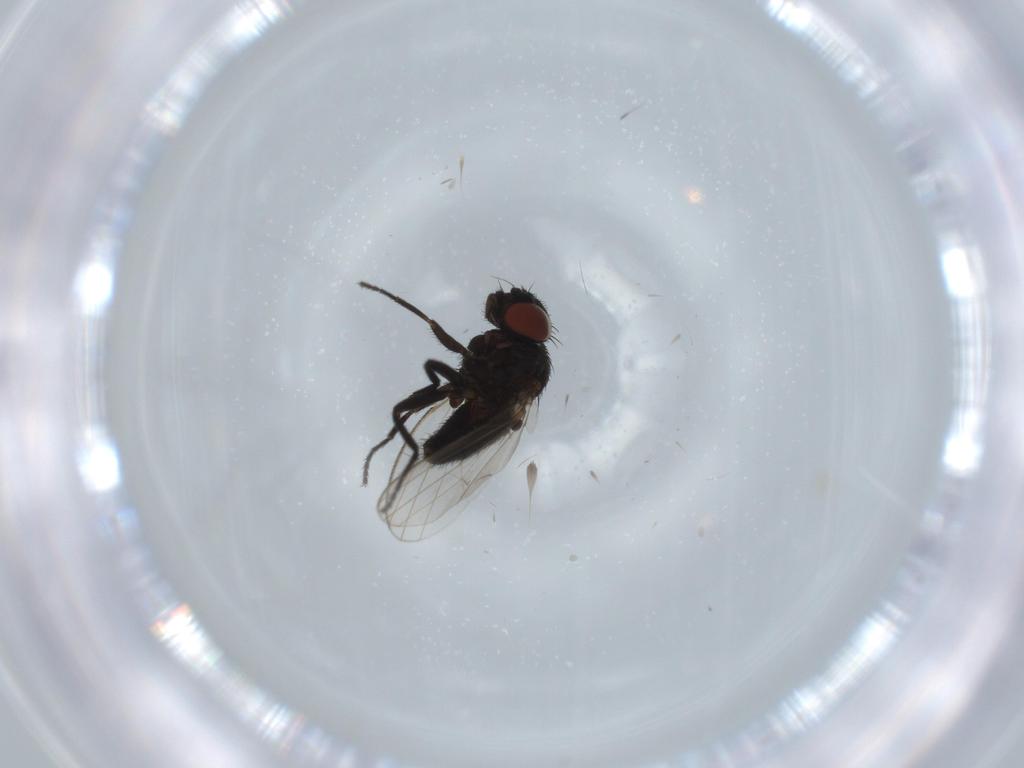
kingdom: Animalia
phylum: Arthropoda
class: Insecta
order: Diptera
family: Milichiidae
